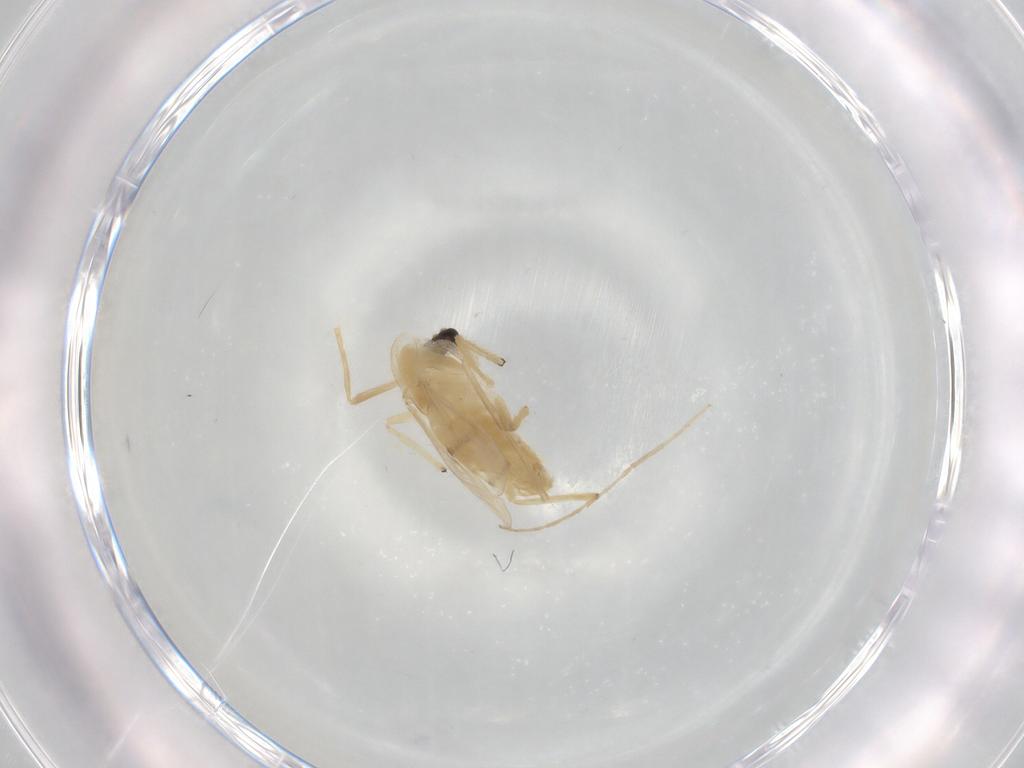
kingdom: Animalia
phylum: Arthropoda
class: Insecta
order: Diptera
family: Chironomidae
